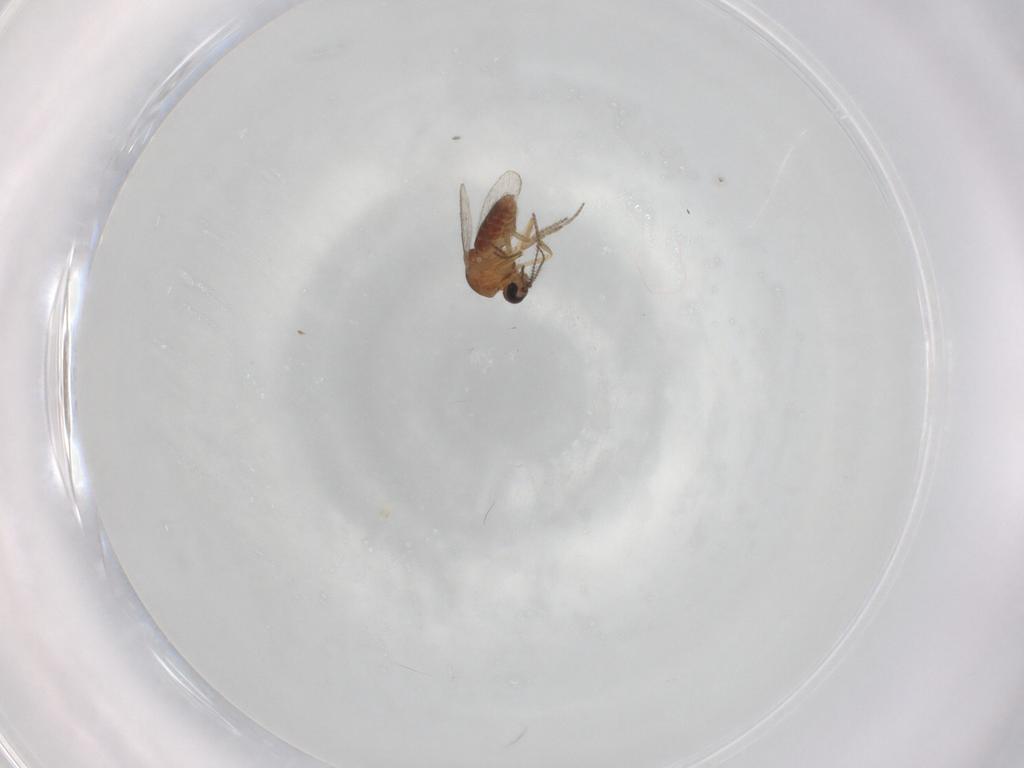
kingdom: Animalia
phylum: Arthropoda
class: Insecta
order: Diptera
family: Ceratopogonidae
